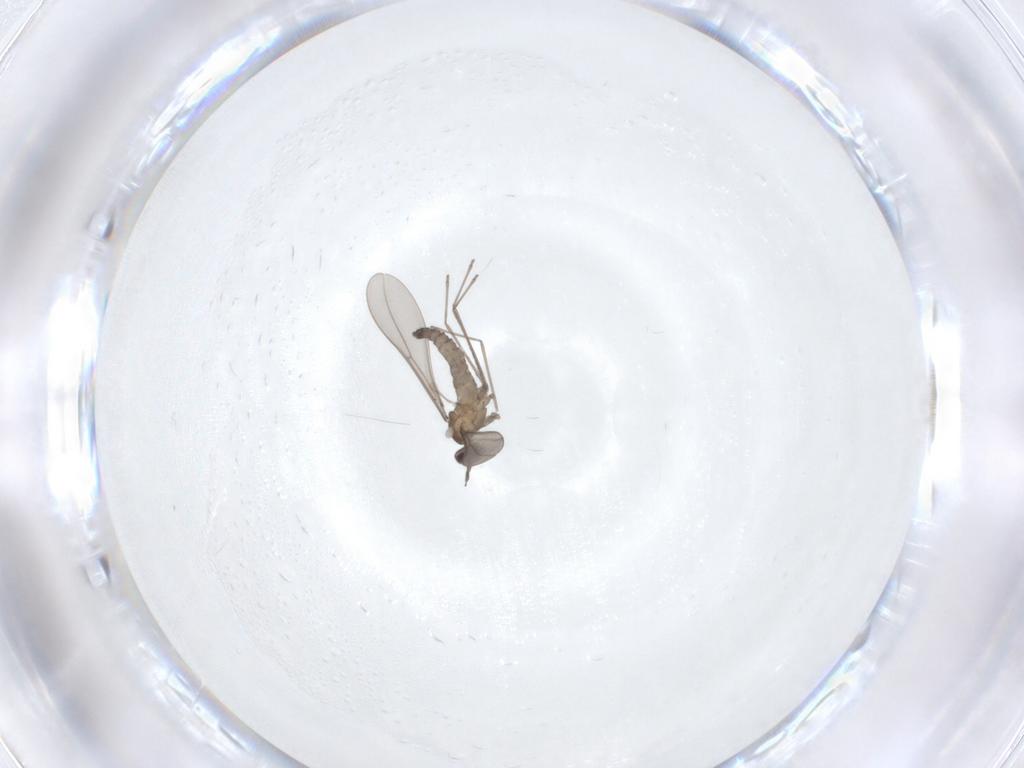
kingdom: Animalia
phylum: Arthropoda
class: Insecta
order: Diptera
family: Cecidomyiidae
